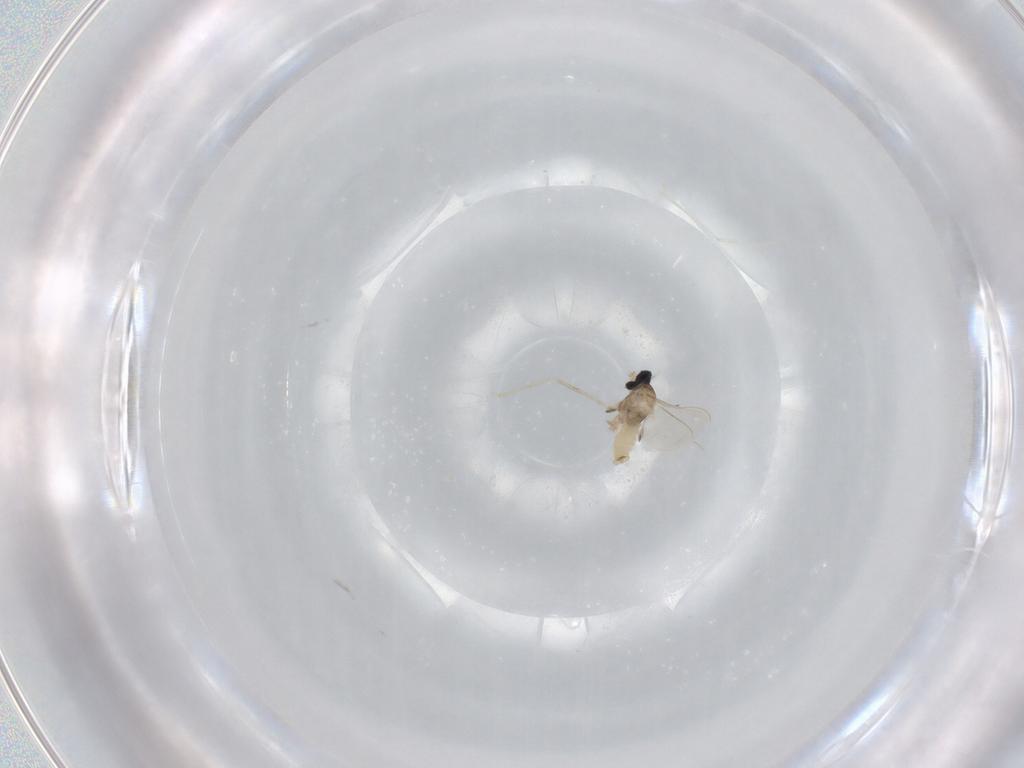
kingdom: Animalia
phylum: Arthropoda
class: Insecta
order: Diptera
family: Cecidomyiidae
